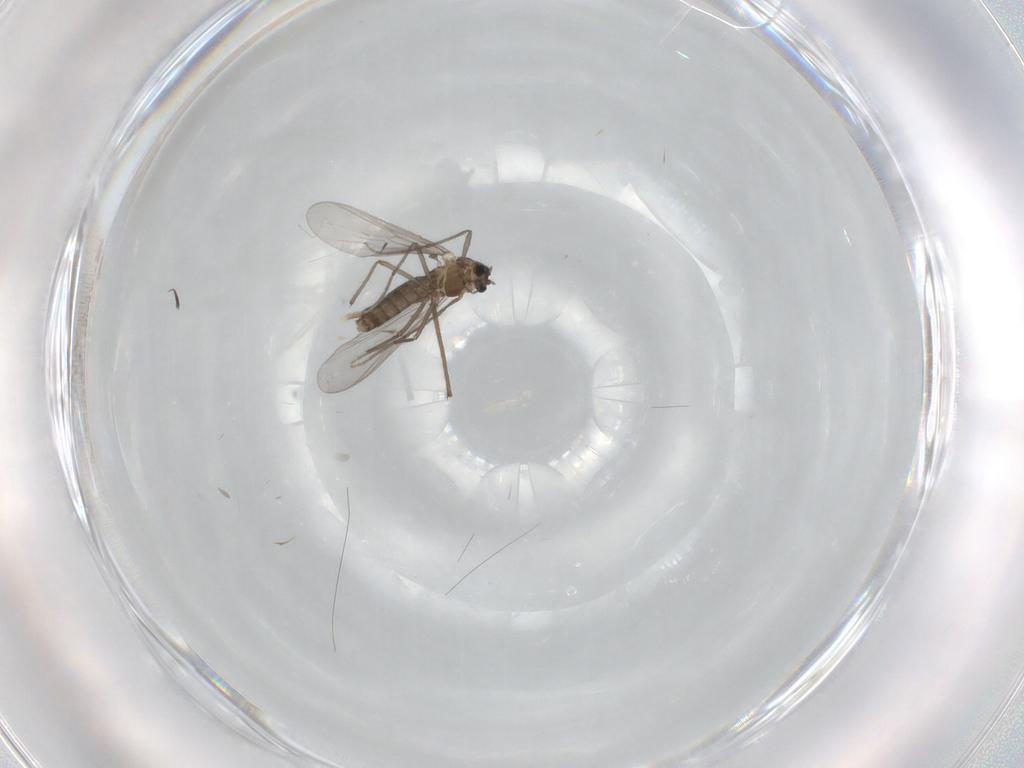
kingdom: Animalia
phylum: Arthropoda
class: Insecta
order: Diptera
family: Chironomidae
